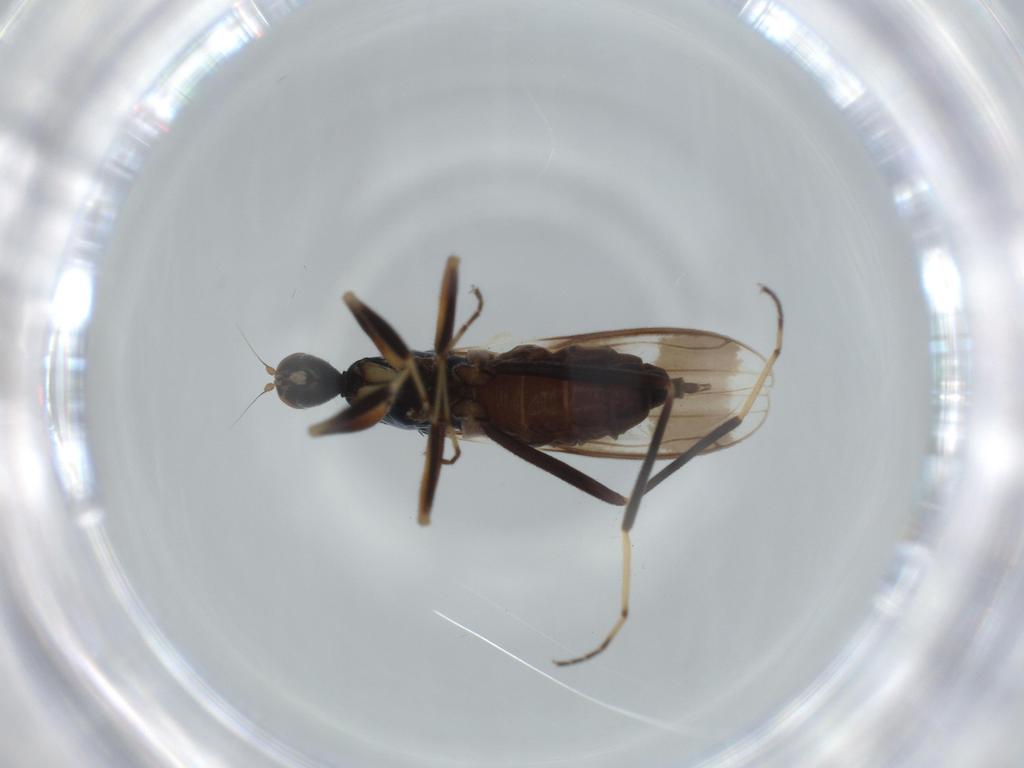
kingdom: Animalia
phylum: Arthropoda
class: Insecta
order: Diptera
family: Hybotidae
